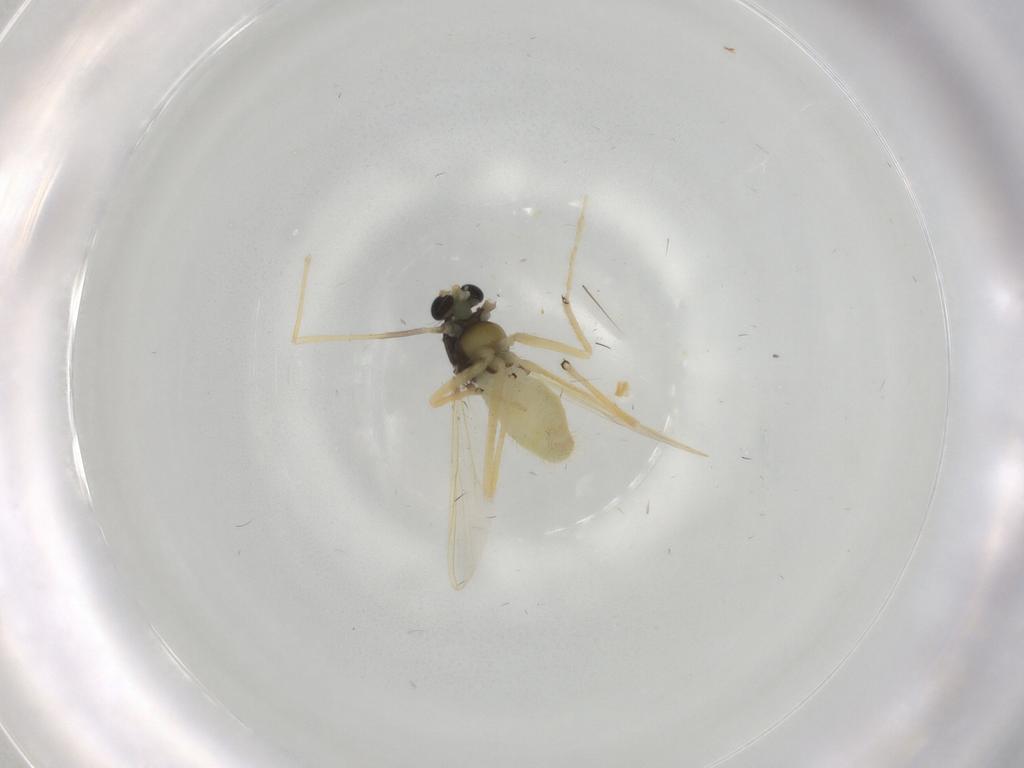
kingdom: Animalia
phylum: Arthropoda
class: Insecta
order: Diptera
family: Chironomidae
